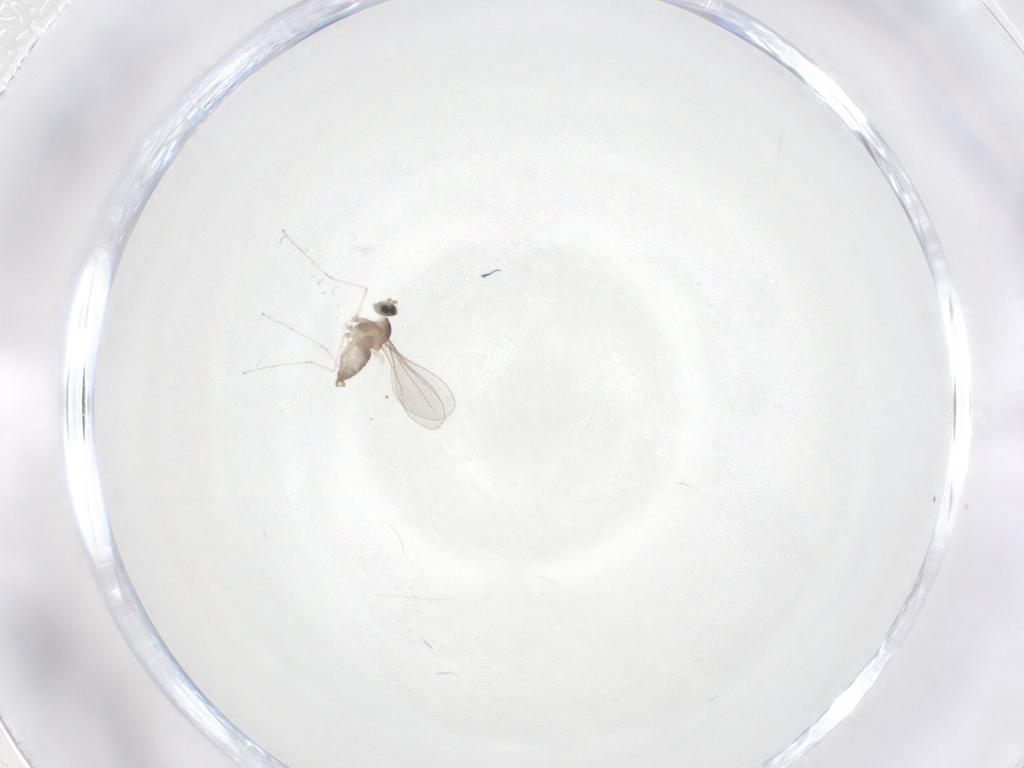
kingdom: Animalia
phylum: Arthropoda
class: Insecta
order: Diptera
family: Cecidomyiidae
